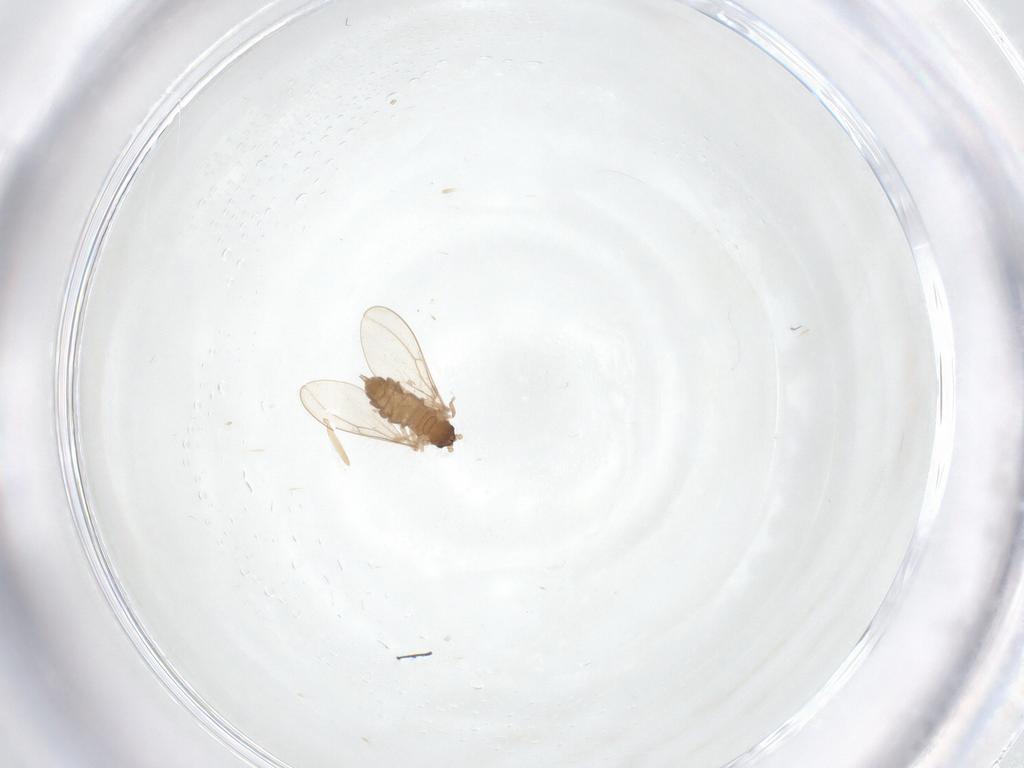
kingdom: Animalia
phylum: Arthropoda
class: Insecta
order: Diptera
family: Cecidomyiidae
